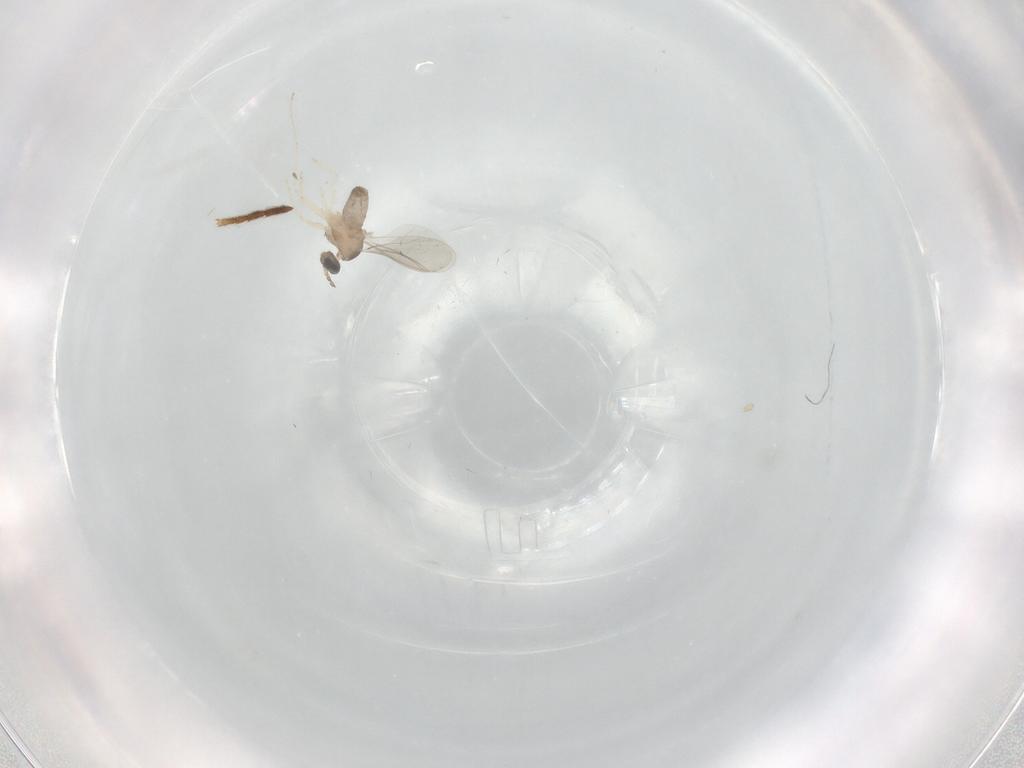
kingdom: Animalia
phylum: Arthropoda
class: Insecta
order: Diptera
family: Cecidomyiidae
